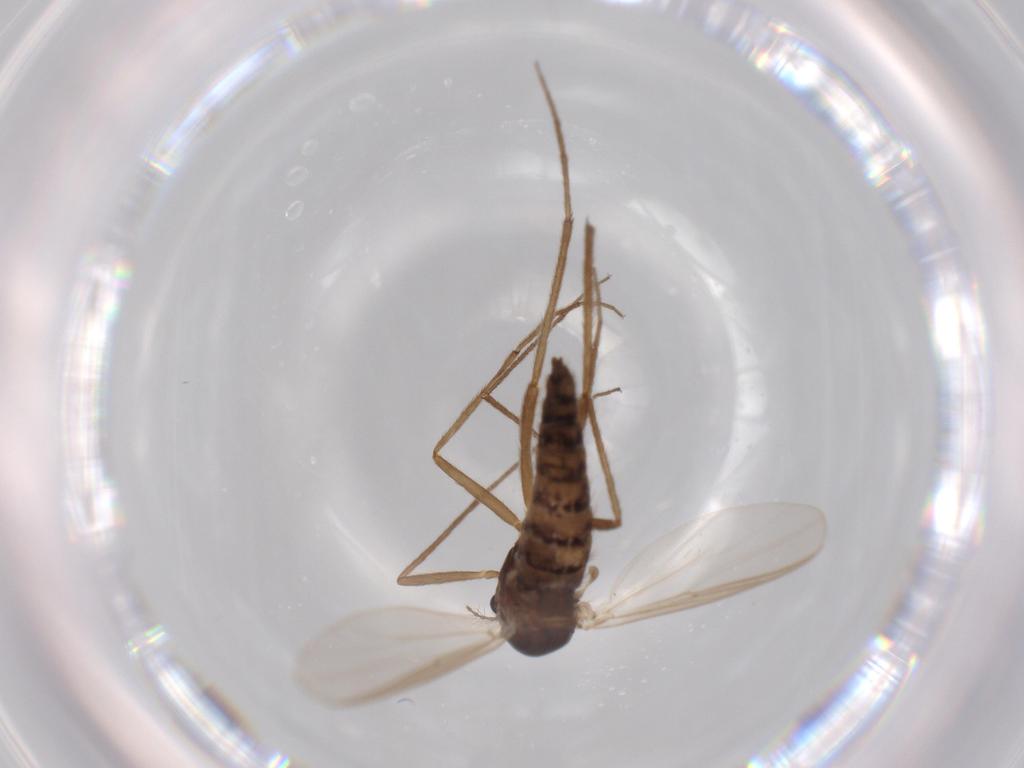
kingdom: Animalia
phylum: Arthropoda
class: Insecta
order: Diptera
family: Chironomidae
